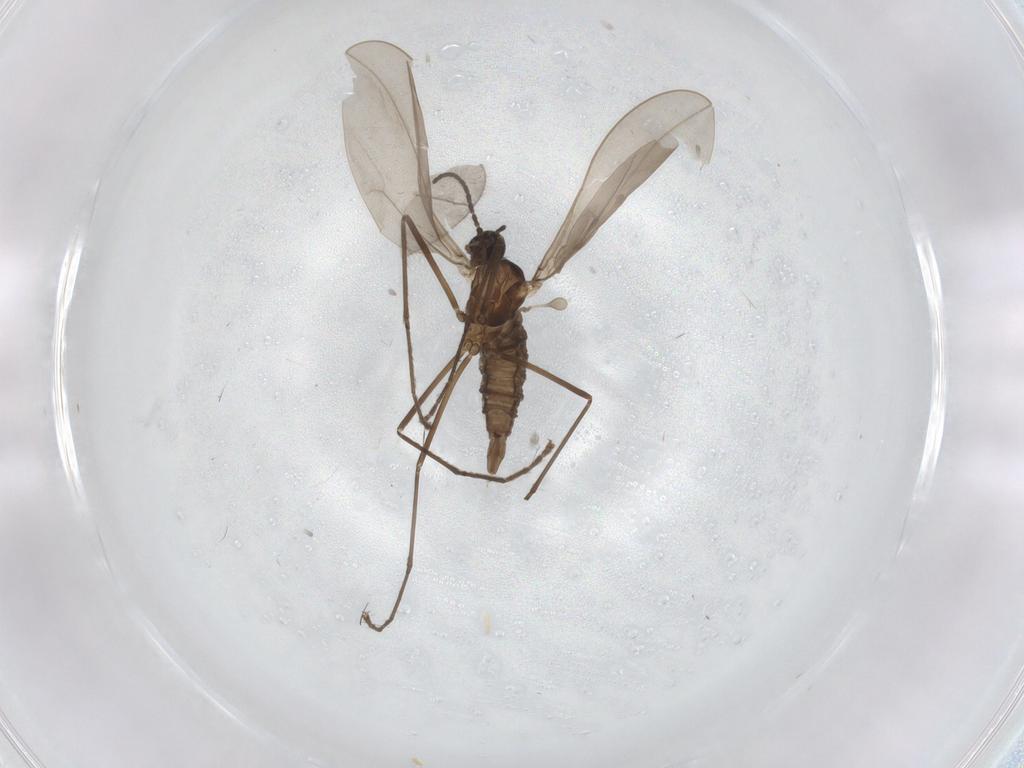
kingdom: Animalia
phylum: Arthropoda
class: Insecta
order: Diptera
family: Cecidomyiidae
